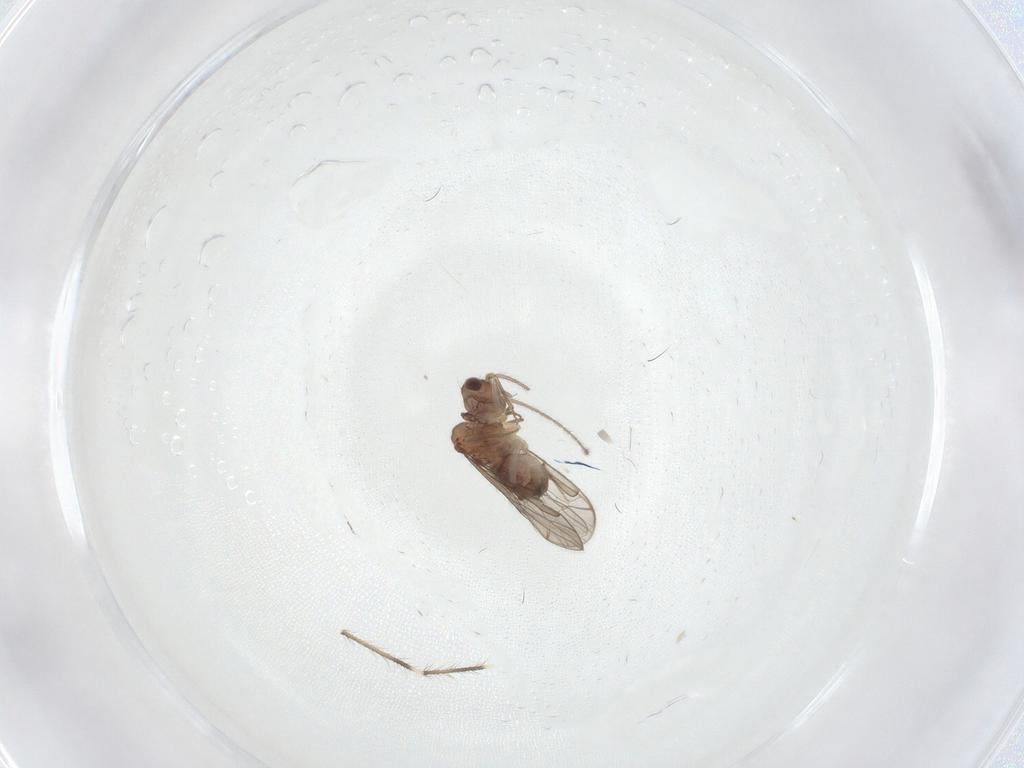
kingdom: Animalia
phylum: Arthropoda
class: Insecta
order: Psocodea
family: Ptiloneuridae
